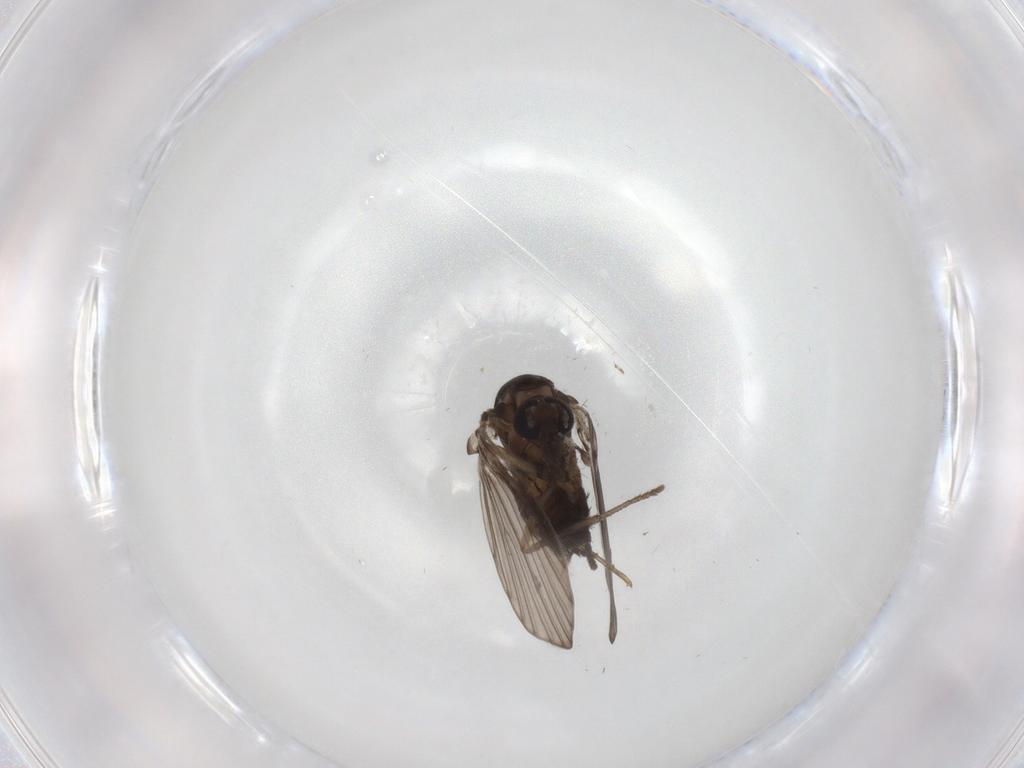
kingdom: Animalia
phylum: Arthropoda
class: Insecta
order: Diptera
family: Psychodidae
